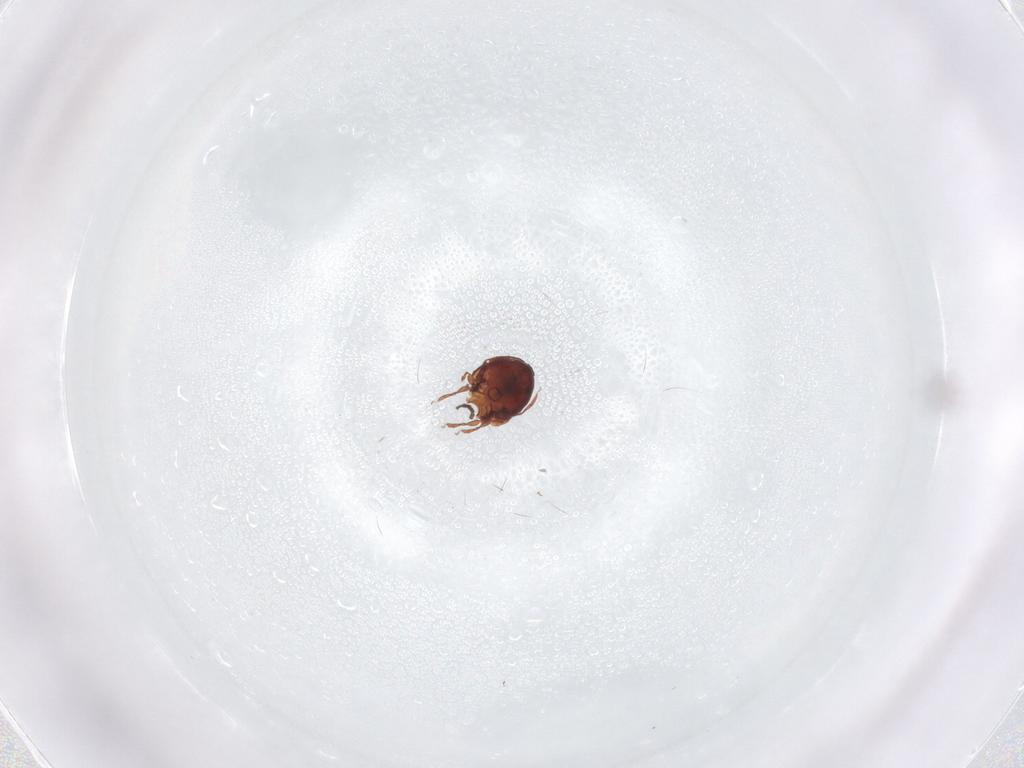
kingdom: Animalia
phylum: Arthropoda
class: Arachnida
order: Sarcoptiformes
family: Humerobatidae
